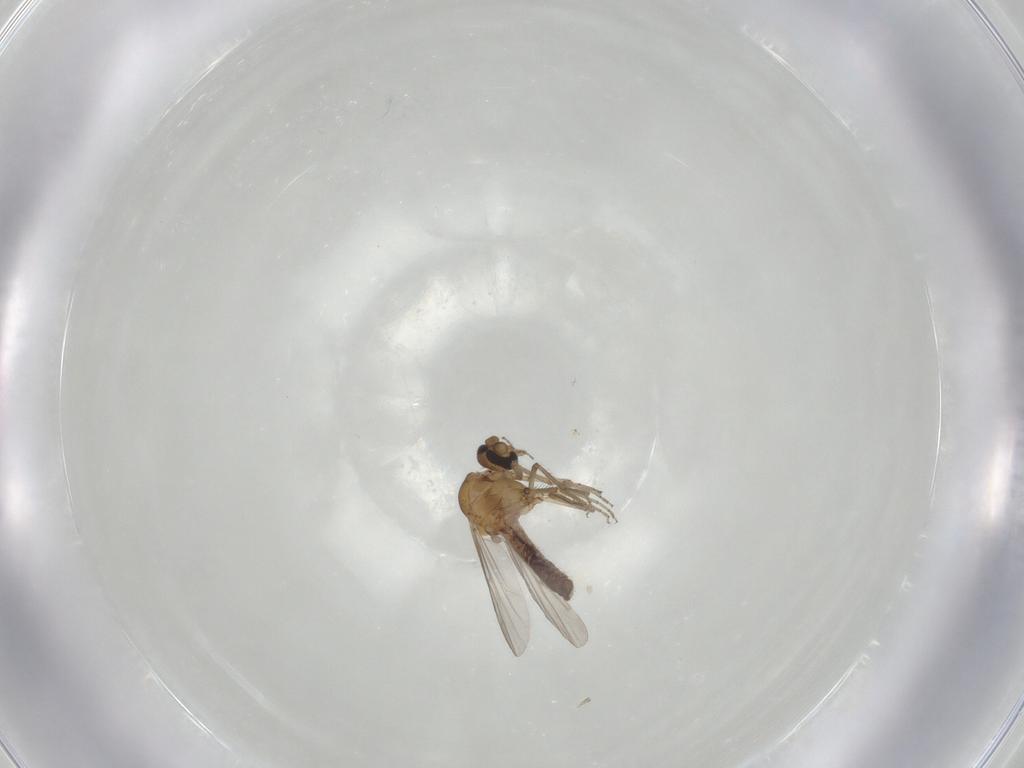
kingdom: Animalia
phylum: Arthropoda
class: Insecta
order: Diptera
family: Ceratopogonidae
